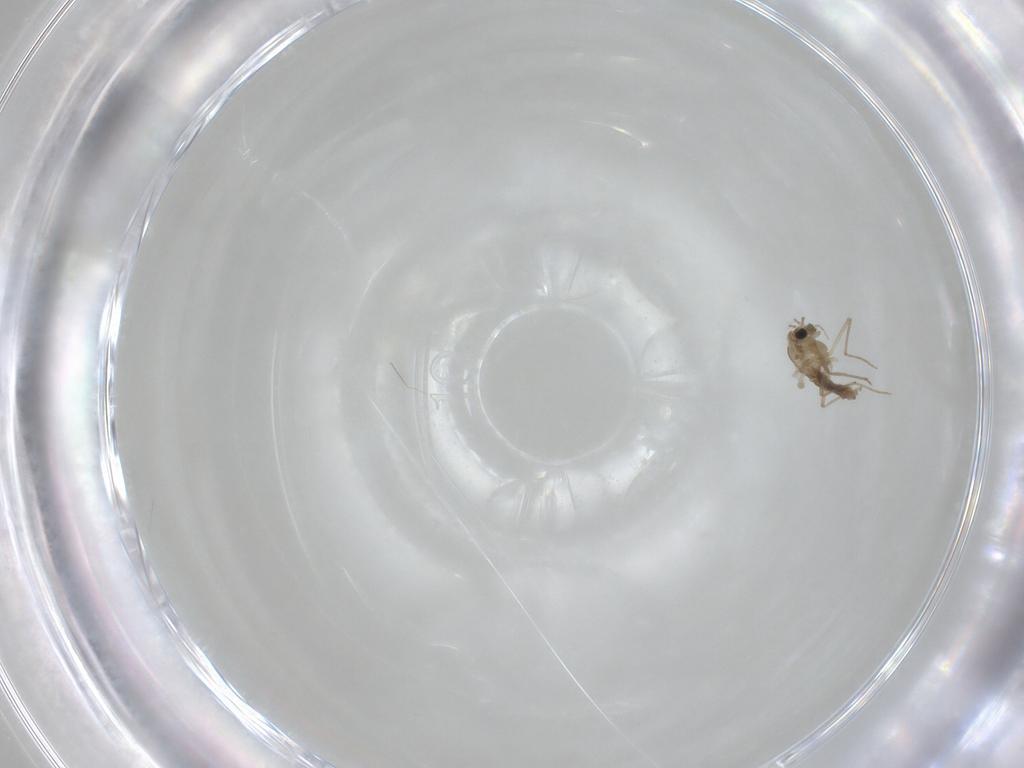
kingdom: Animalia
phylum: Arthropoda
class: Insecta
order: Diptera
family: Chironomidae
